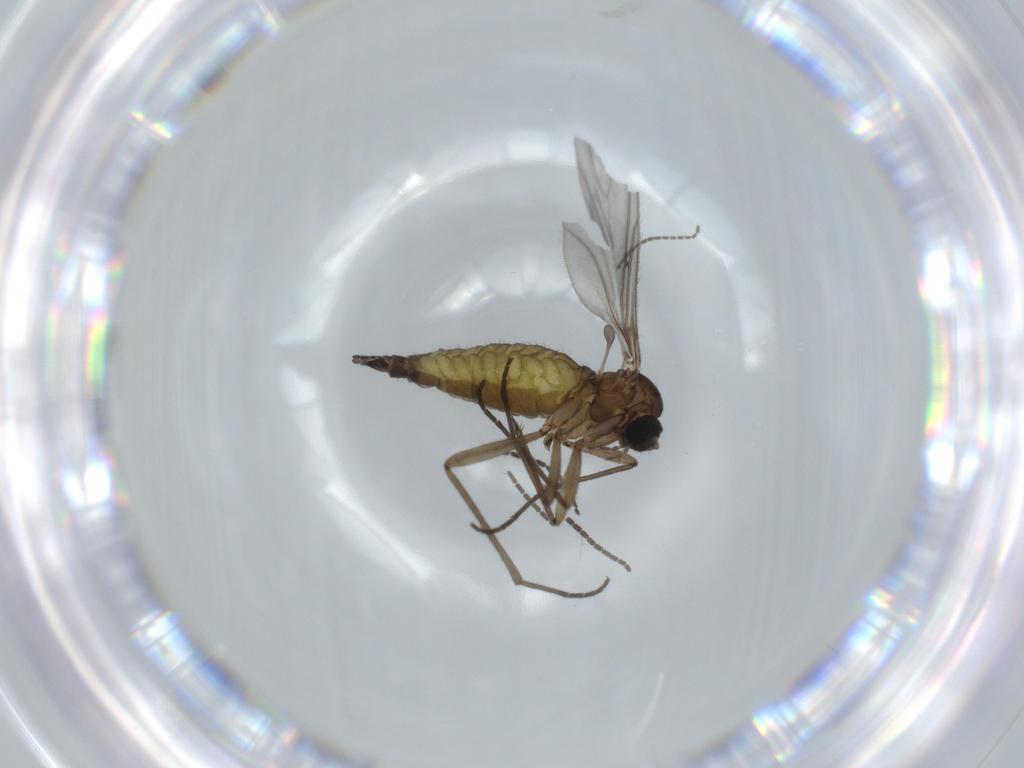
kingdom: Animalia
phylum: Arthropoda
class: Insecta
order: Diptera
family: Sciaridae
